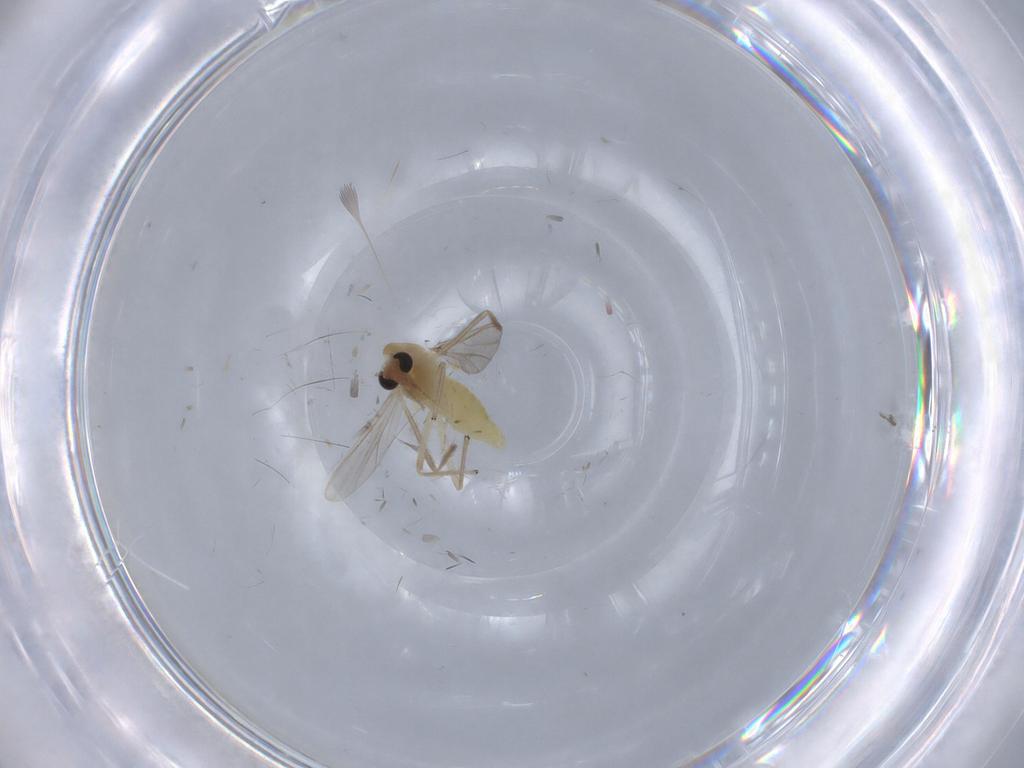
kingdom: Animalia
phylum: Arthropoda
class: Insecta
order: Diptera
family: Chironomidae
